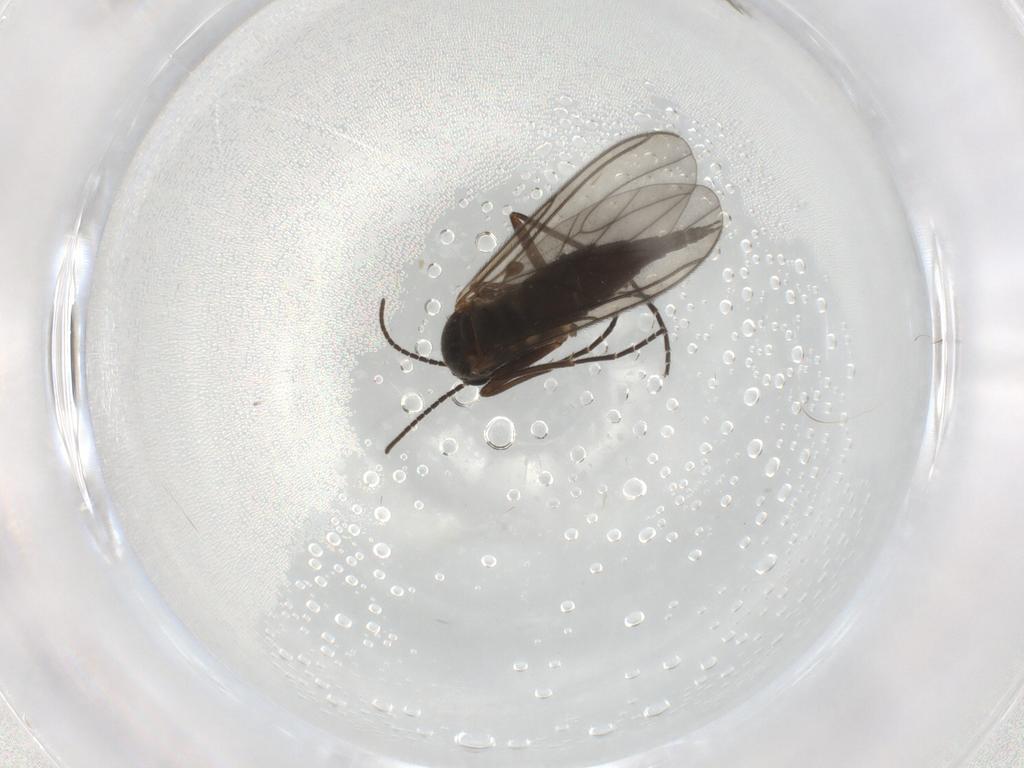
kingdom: Animalia
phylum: Arthropoda
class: Insecta
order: Diptera
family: Sciaridae
